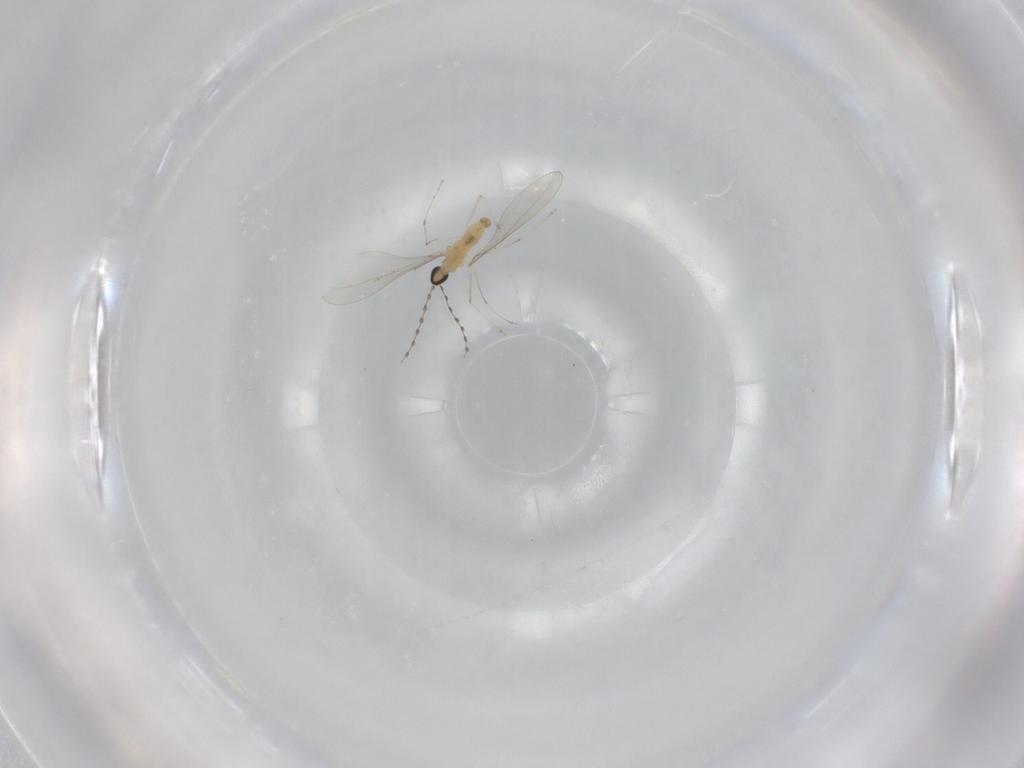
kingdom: Animalia
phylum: Arthropoda
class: Insecta
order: Diptera
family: Cecidomyiidae
